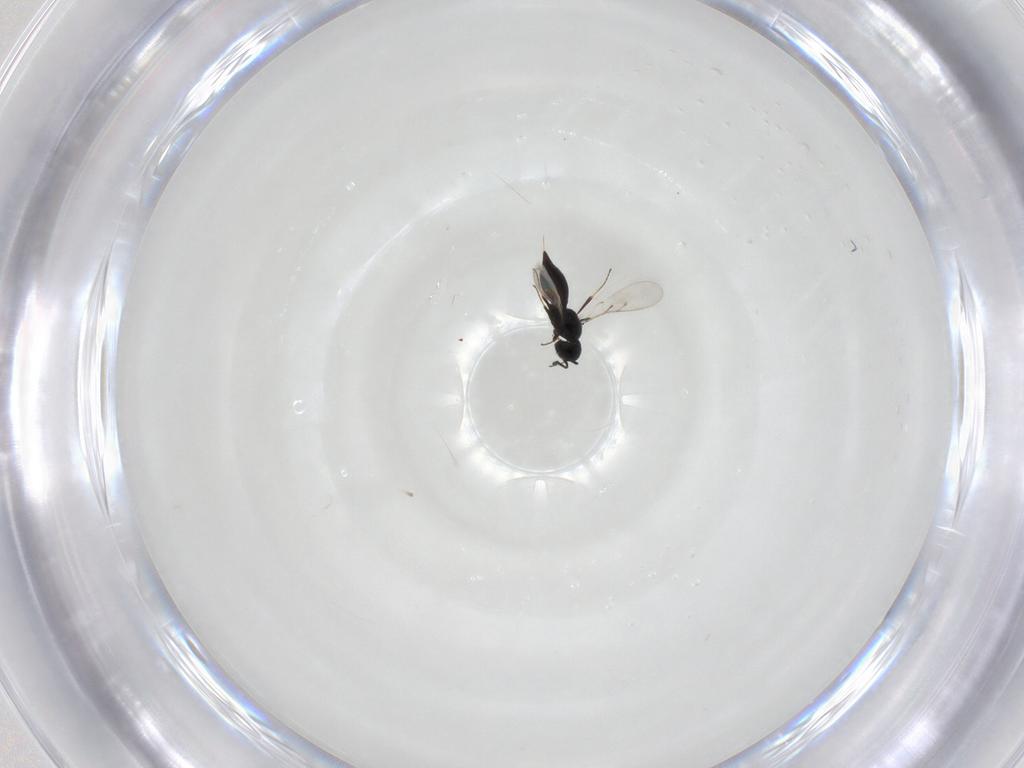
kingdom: Animalia
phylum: Arthropoda
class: Insecta
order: Hymenoptera
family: Scelionidae
